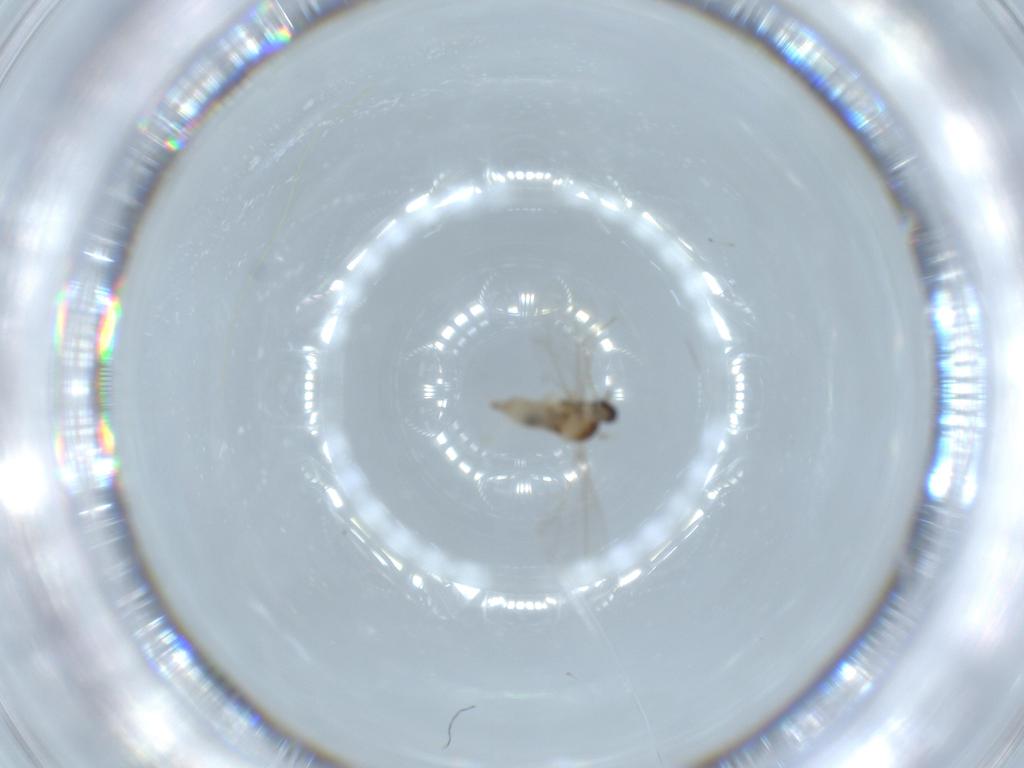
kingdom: Animalia
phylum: Arthropoda
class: Insecta
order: Diptera
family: Cecidomyiidae
